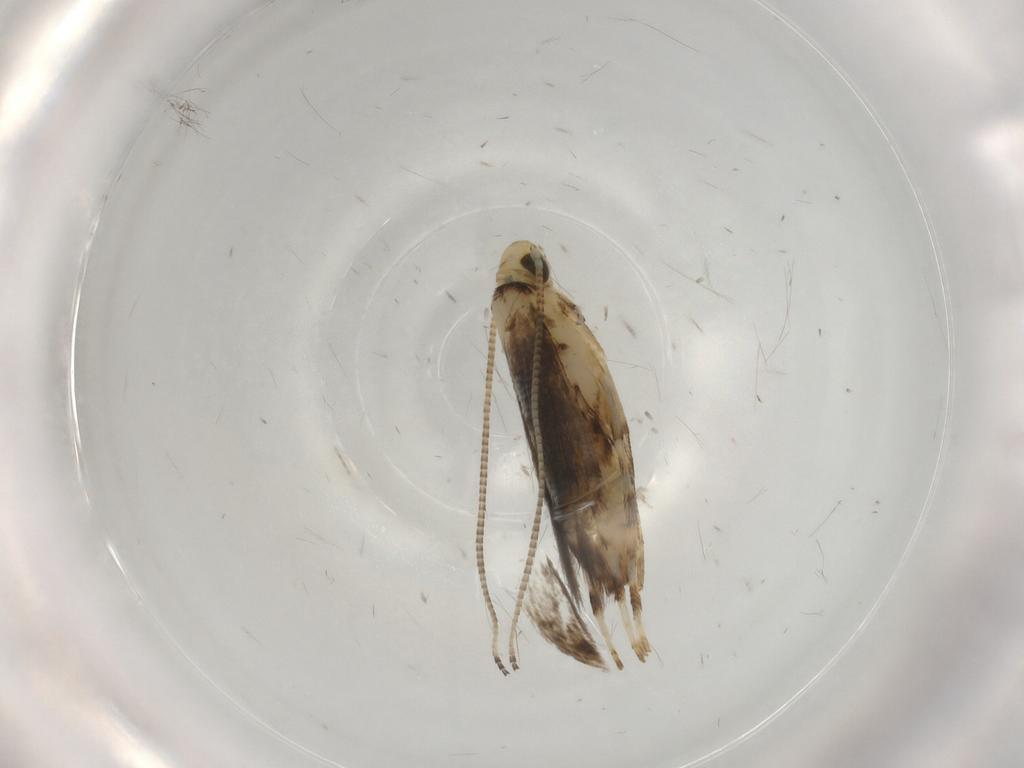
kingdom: Animalia
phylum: Arthropoda
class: Insecta
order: Lepidoptera
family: Gracillariidae
